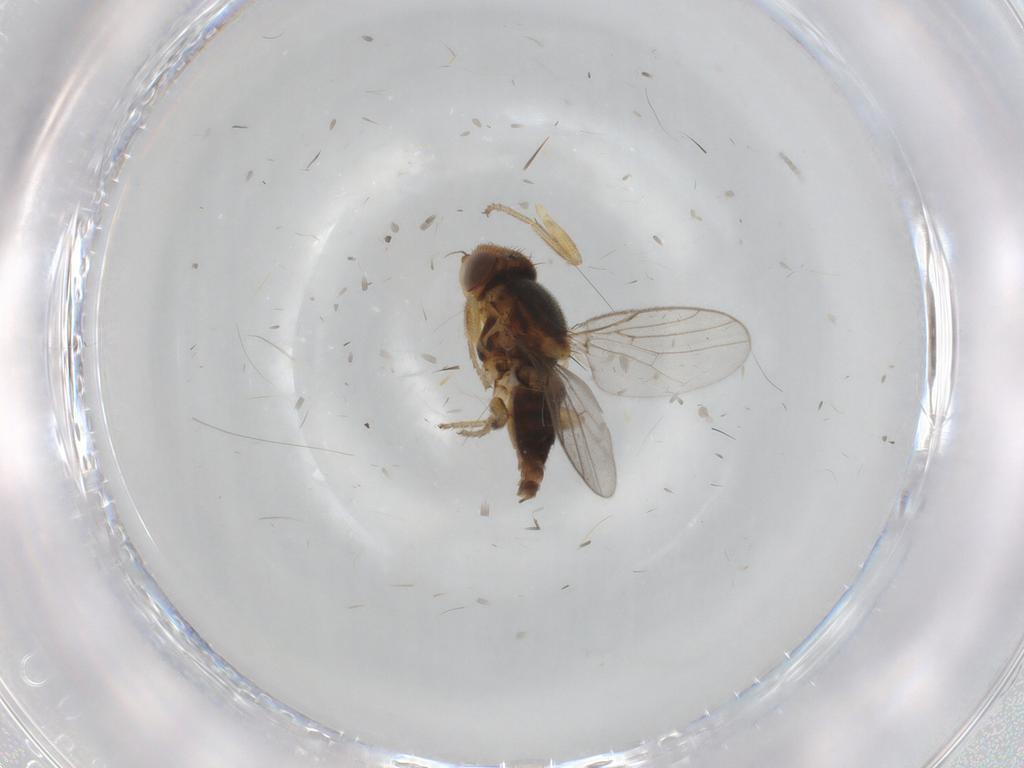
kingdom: Animalia
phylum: Arthropoda
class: Insecta
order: Diptera
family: Chloropidae
